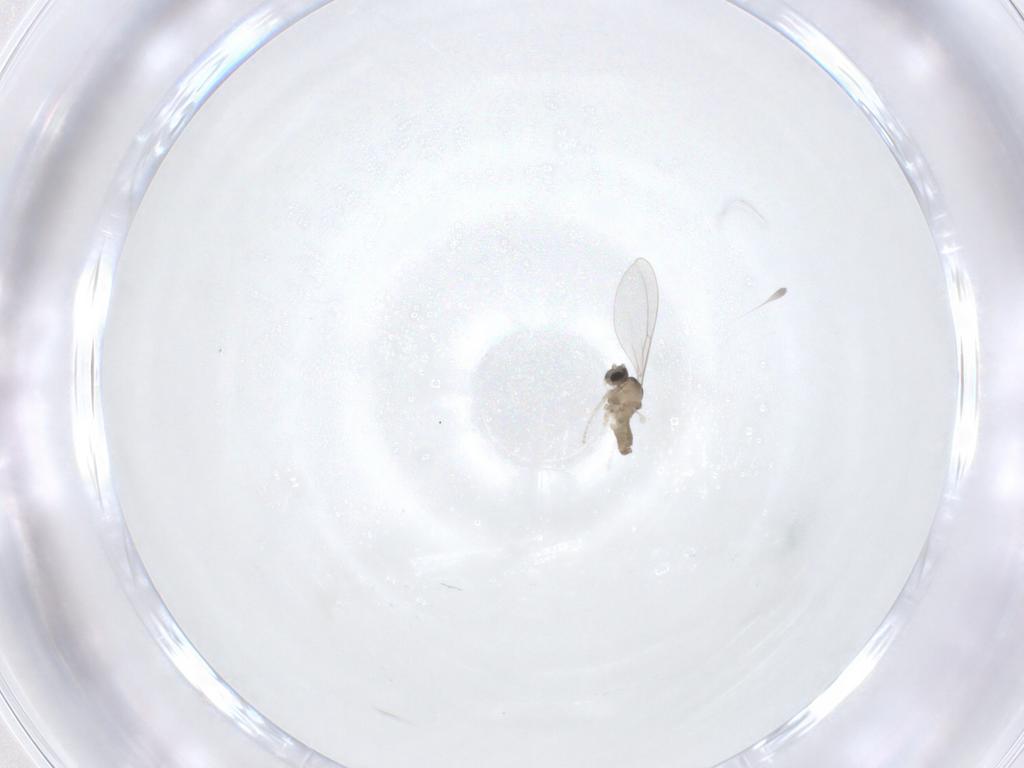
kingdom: Animalia
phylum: Arthropoda
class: Insecta
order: Diptera
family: Cecidomyiidae
